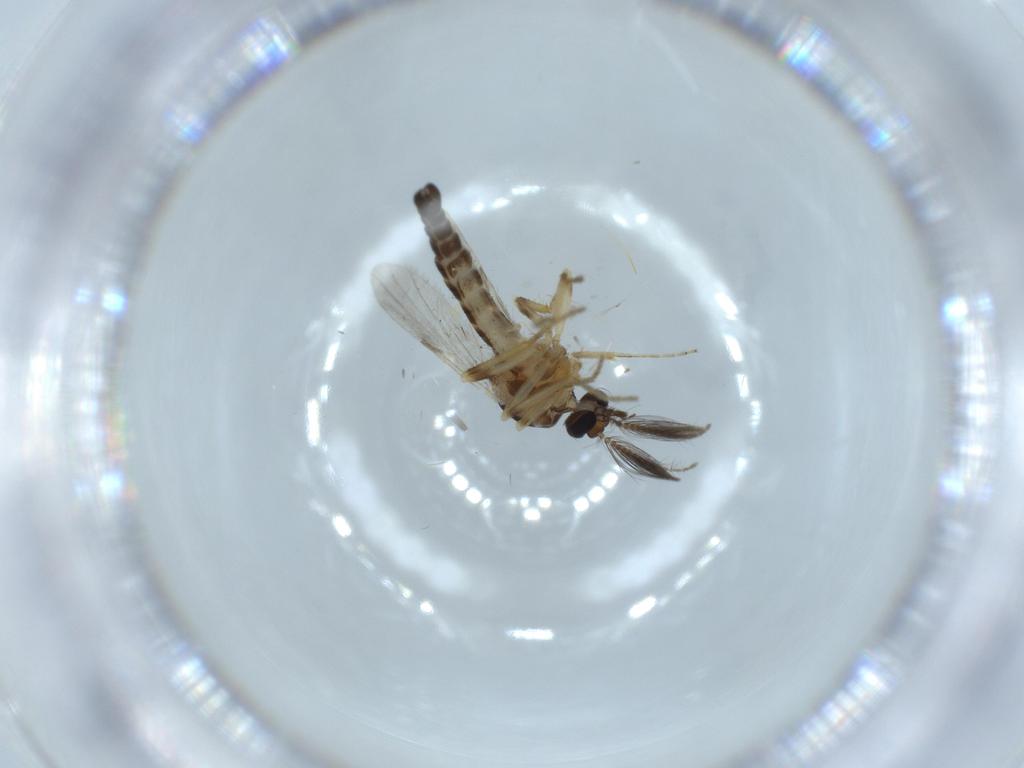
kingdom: Animalia
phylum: Arthropoda
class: Insecta
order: Diptera
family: Ceratopogonidae
